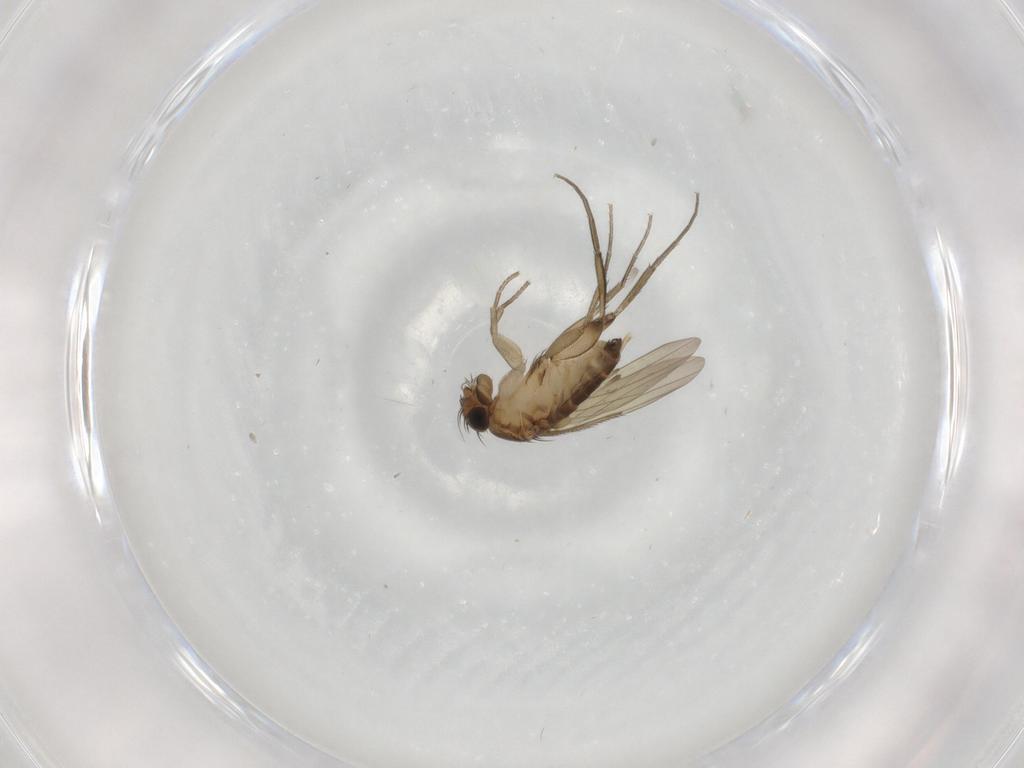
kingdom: Animalia
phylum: Arthropoda
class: Insecta
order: Diptera
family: Phoridae
